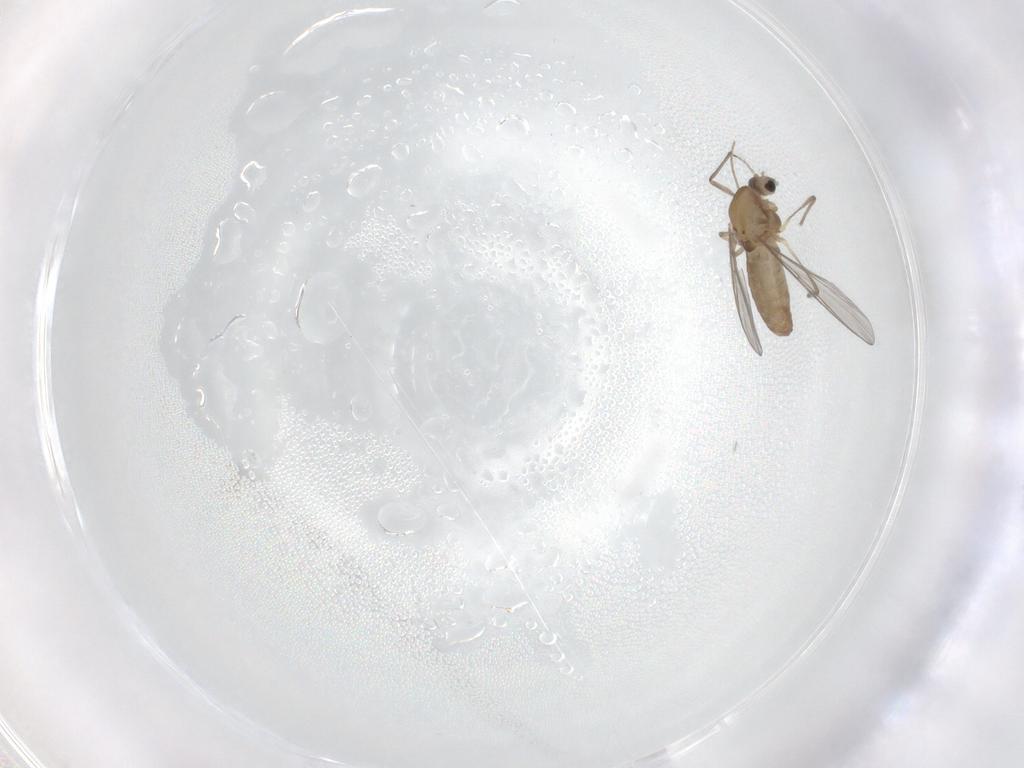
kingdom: Animalia
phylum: Arthropoda
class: Insecta
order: Diptera
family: Chironomidae
